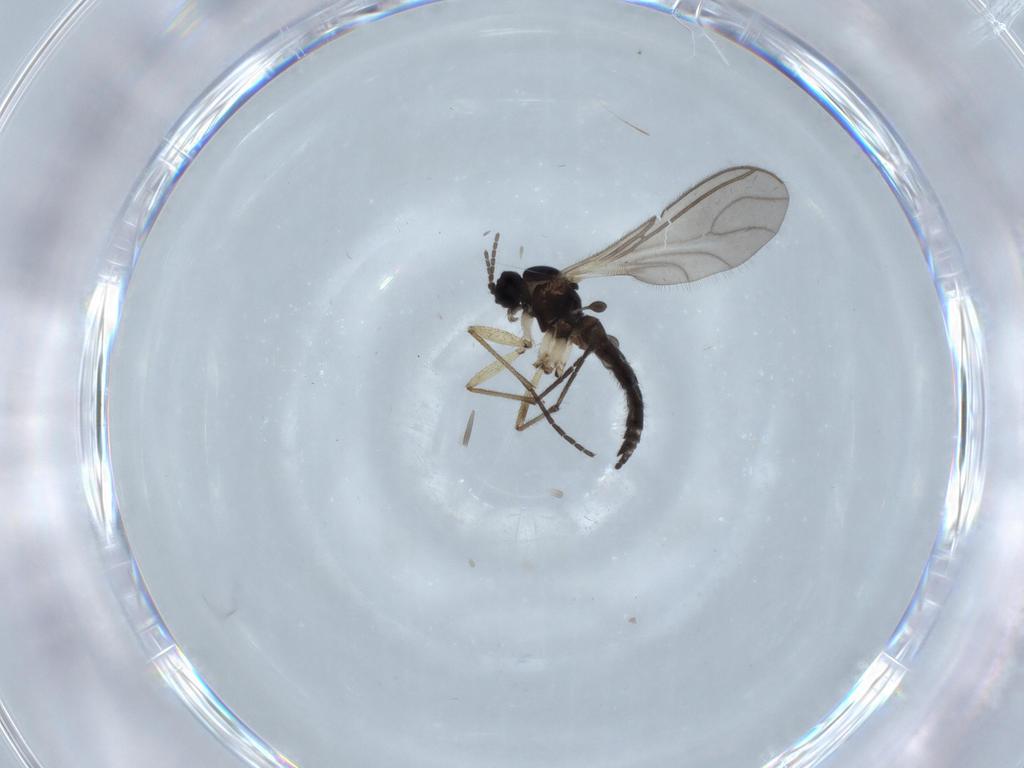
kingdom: Animalia
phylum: Arthropoda
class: Insecta
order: Diptera
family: Sciaridae
